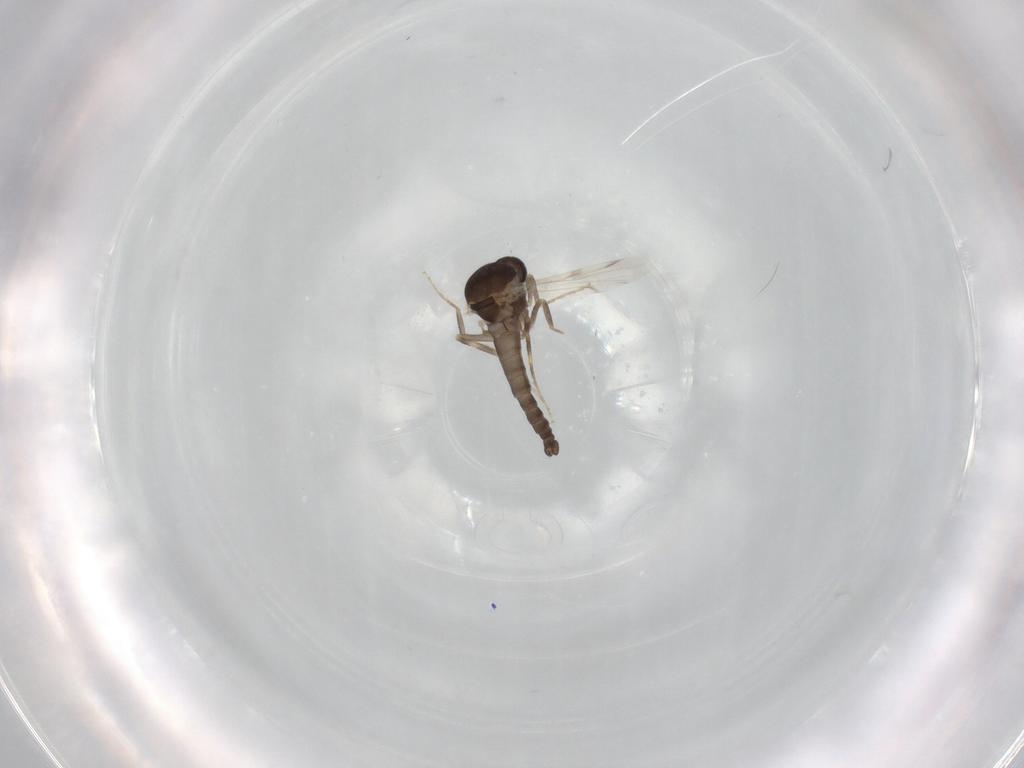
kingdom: Animalia
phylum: Arthropoda
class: Insecta
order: Diptera
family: Ceratopogonidae
